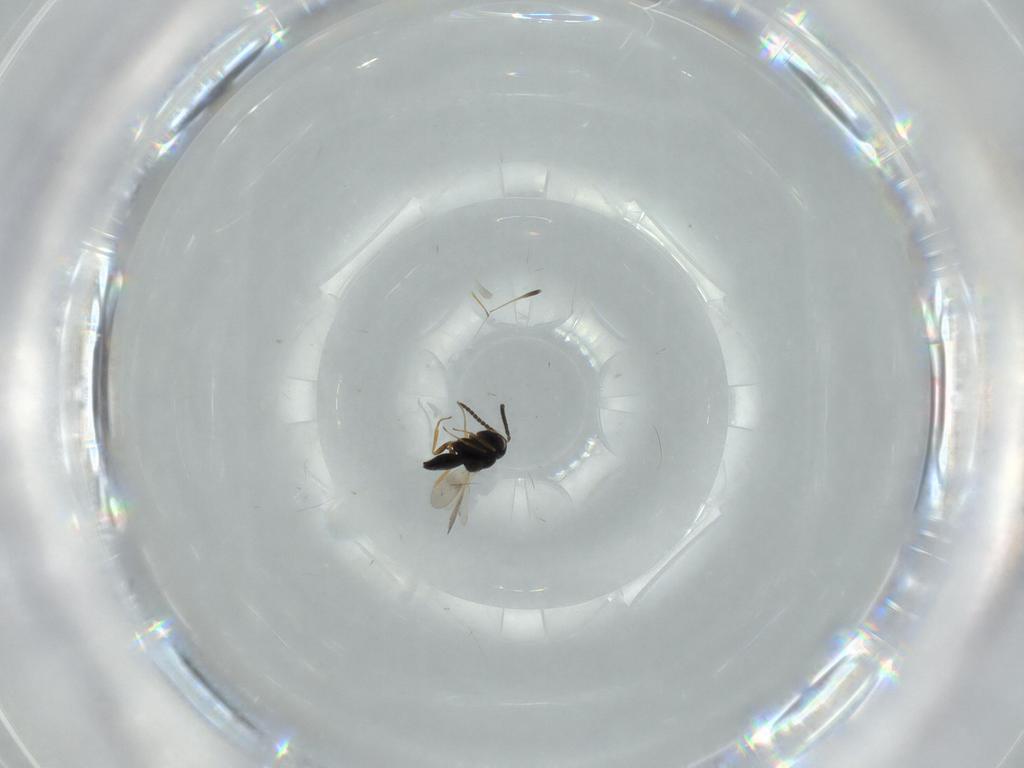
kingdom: Animalia
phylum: Arthropoda
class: Insecta
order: Hymenoptera
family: Scelionidae
